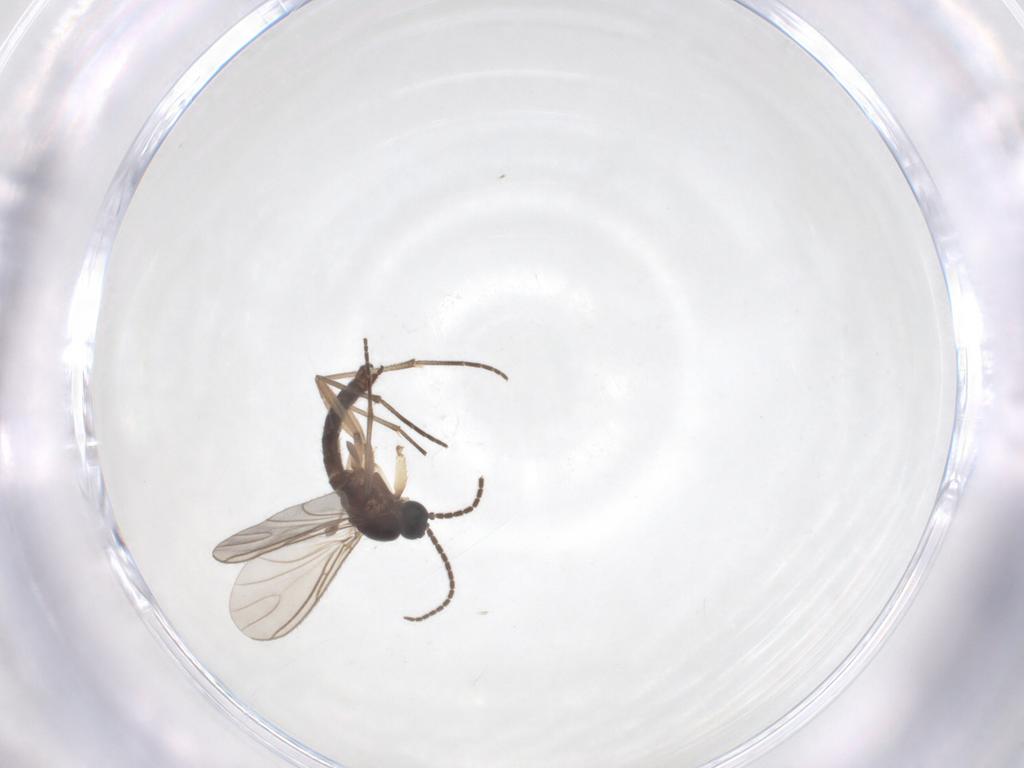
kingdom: Animalia
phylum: Arthropoda
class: Insecta
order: Diptera
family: Sciaridae
